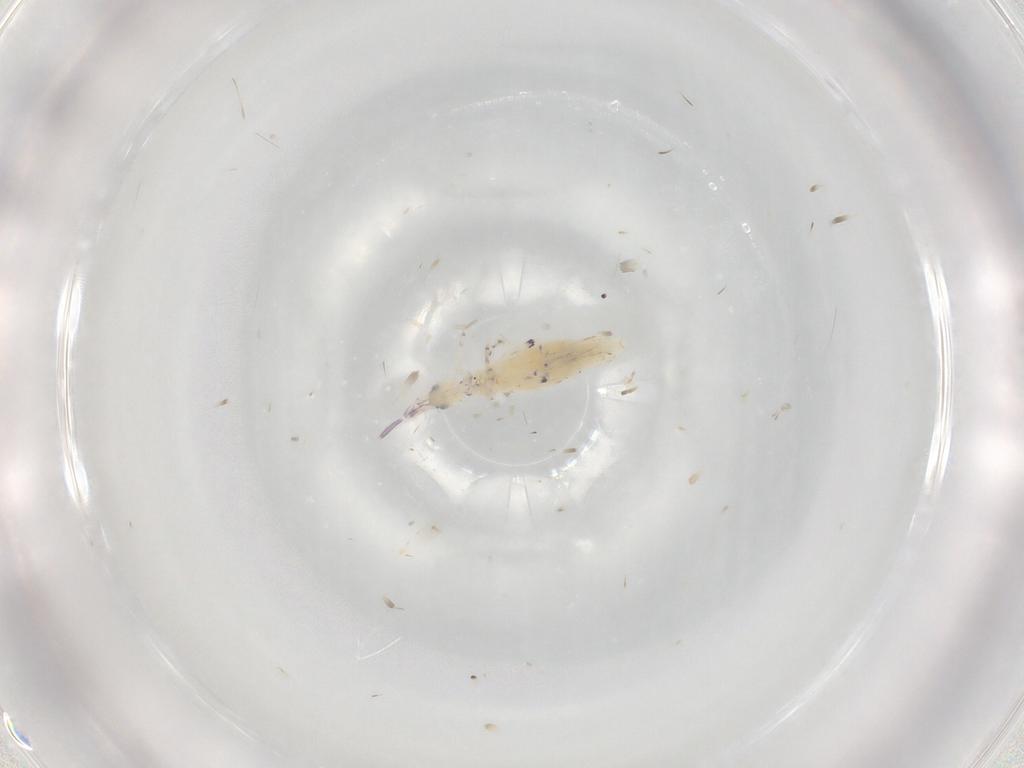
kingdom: Animalia
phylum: Arthropoda
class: Collembola
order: Entomobryomorpha
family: Entomobryidae
